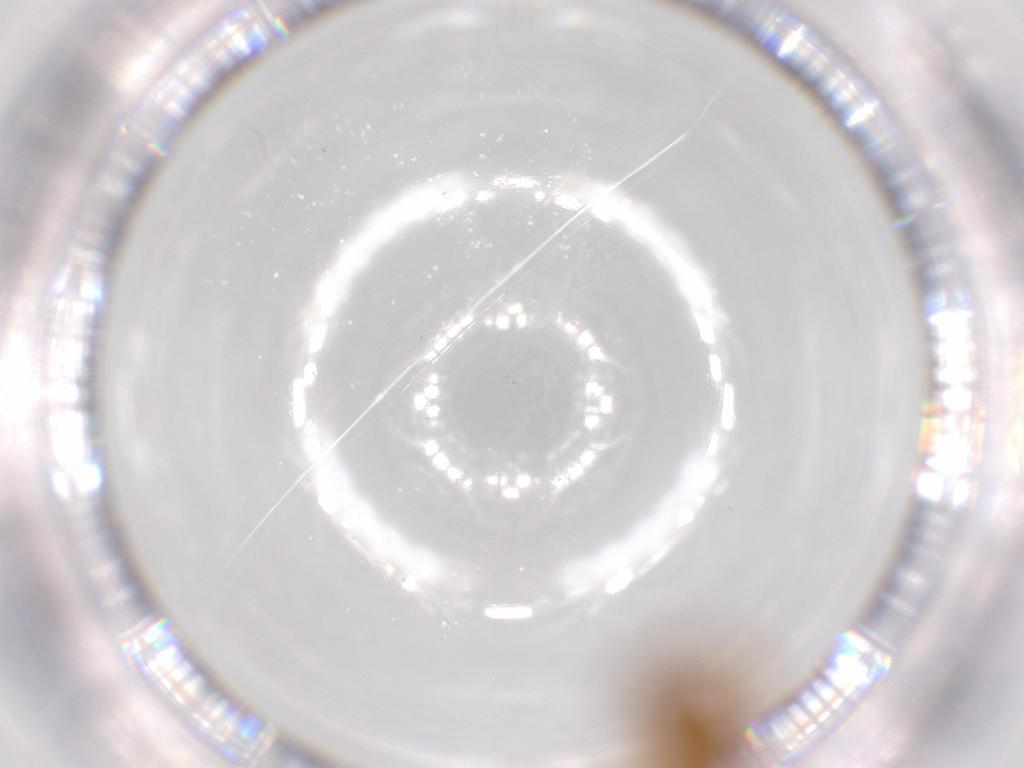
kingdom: Animalia
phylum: Arthropoda
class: Insecta
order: Hymenoptera
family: Formicidae
